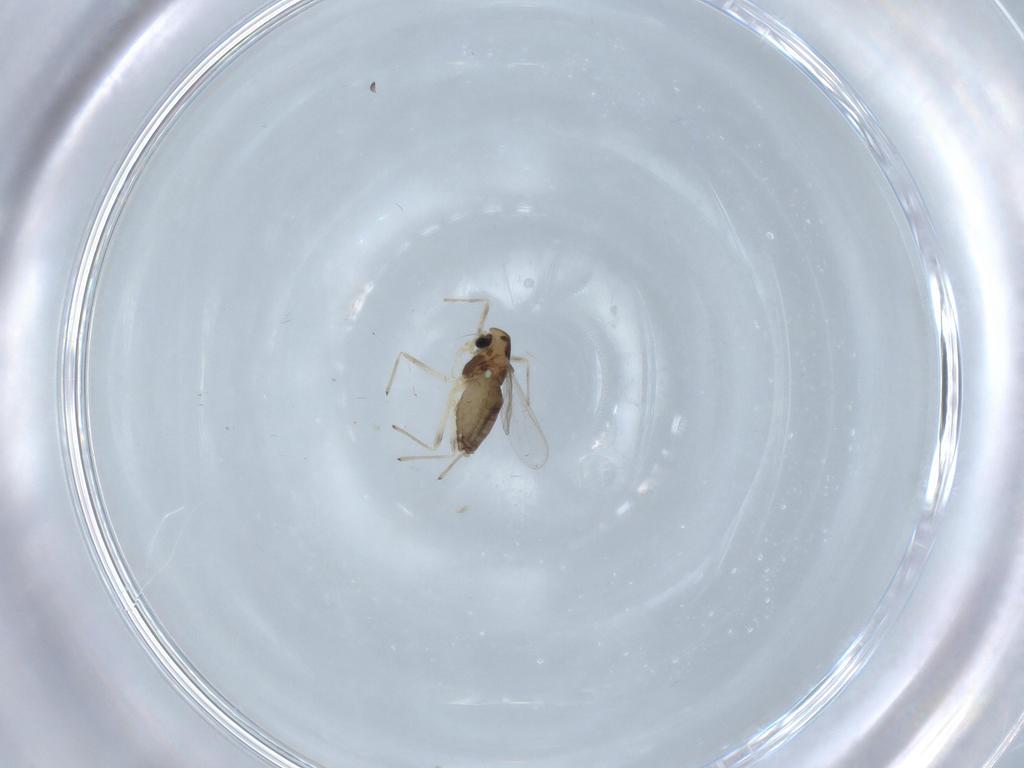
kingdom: Animalia
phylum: Arthropoda
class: Insecta
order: Diptera
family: Chironomidae
